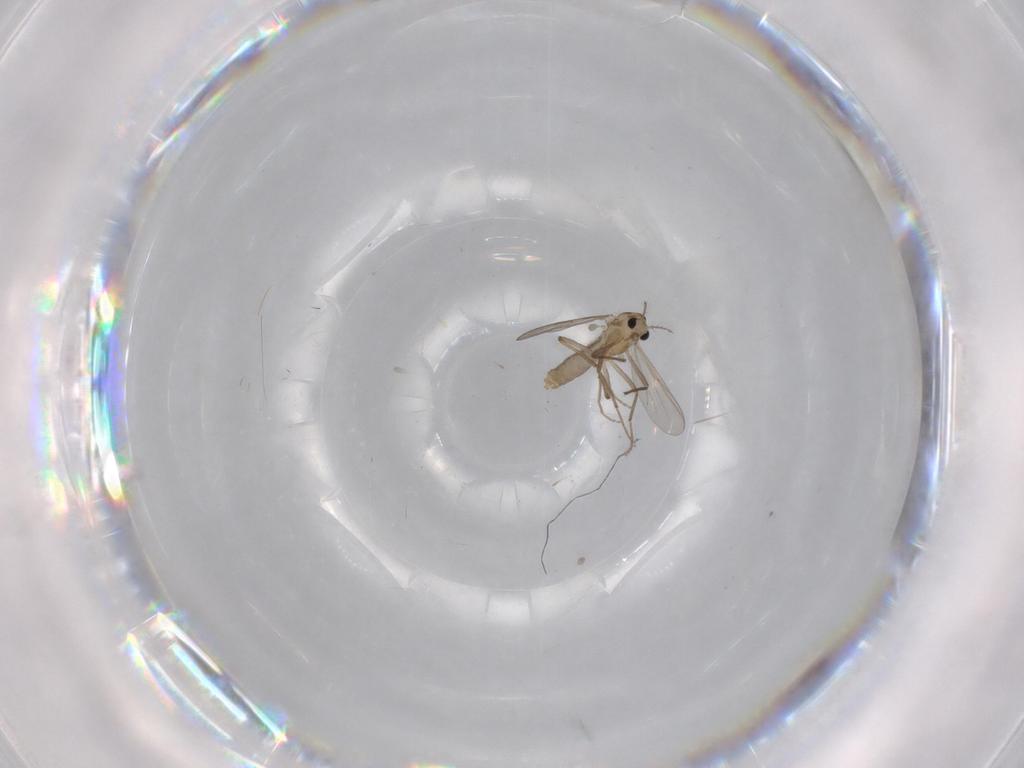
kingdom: Animalia
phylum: Arthropoda
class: Insecta
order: Diptera
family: Chironomidae
